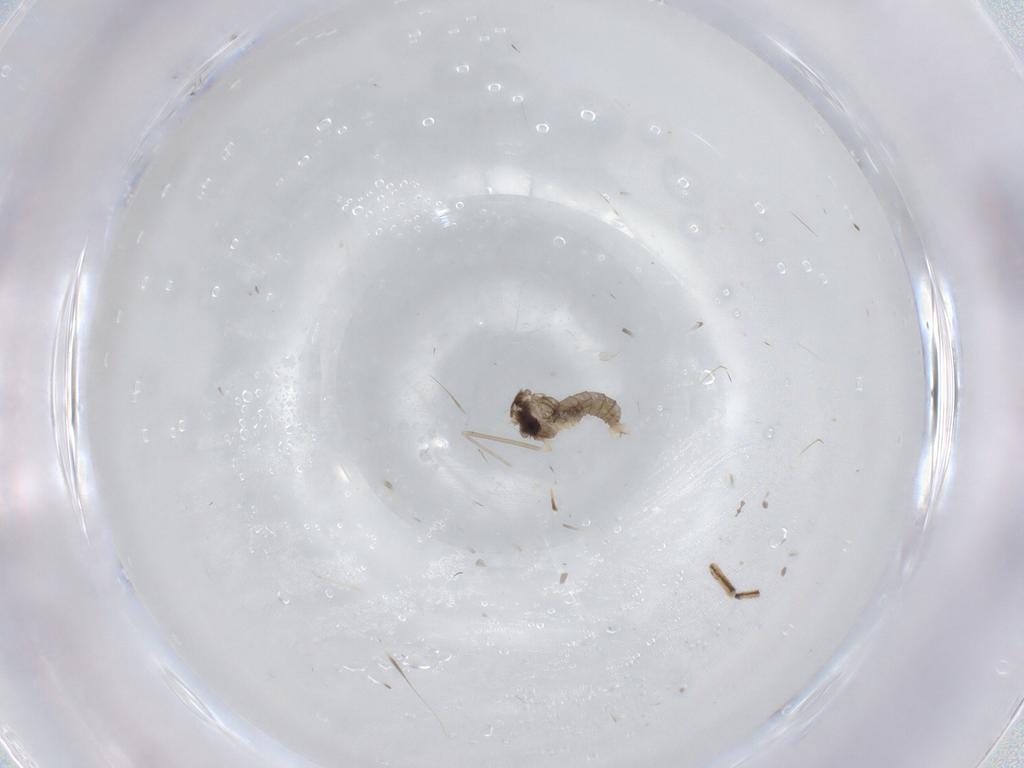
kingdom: Animalia
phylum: Arthropoda
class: Insecta
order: Diptera
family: Cecidomyiidae
